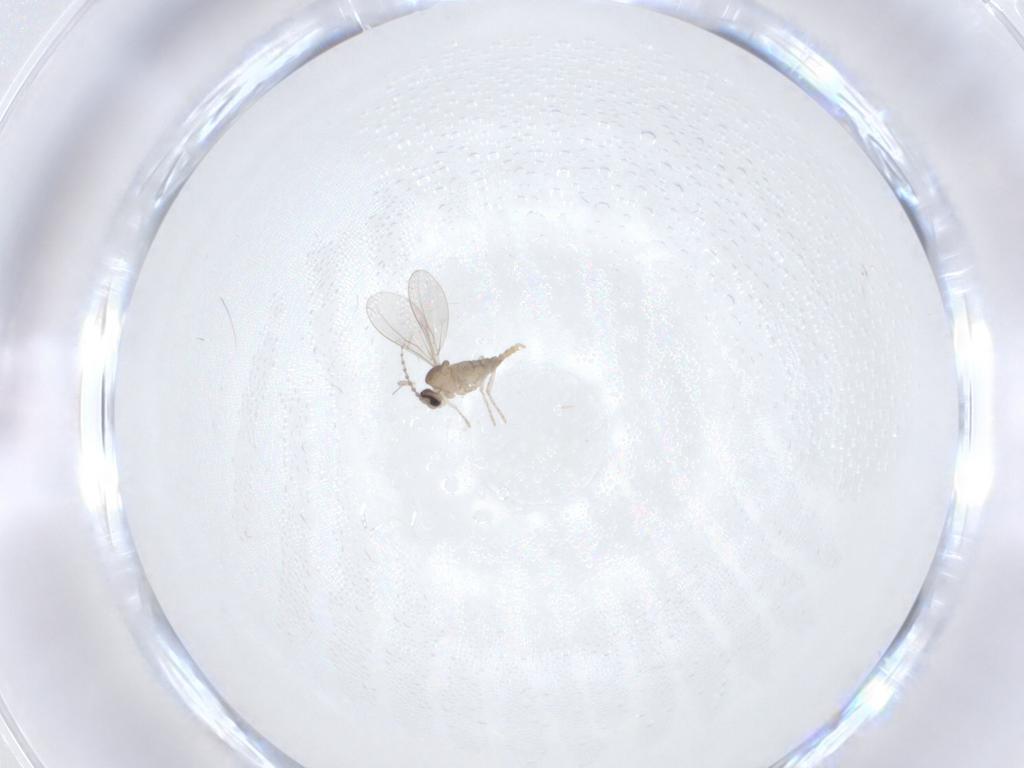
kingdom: Animalia
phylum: Arthropoda
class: Insecta
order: Diptera
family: Cecidomyiidae
